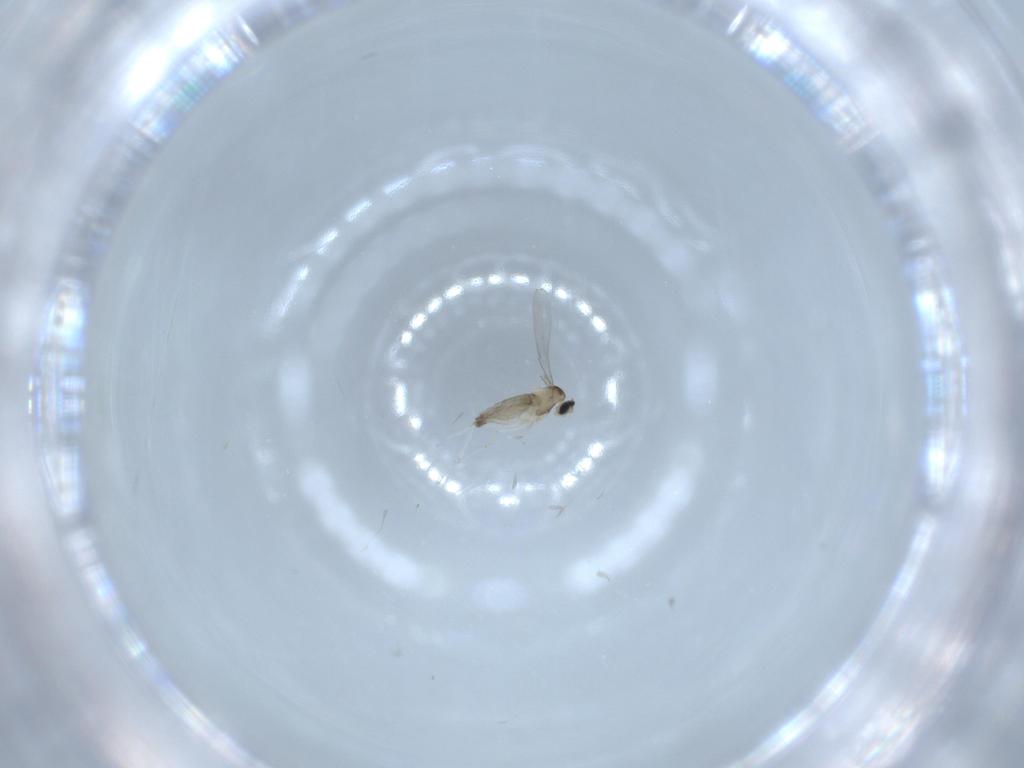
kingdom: Animalia
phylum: Arthropoda
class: Insecta
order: Diptera
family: Cecidomyiidae
